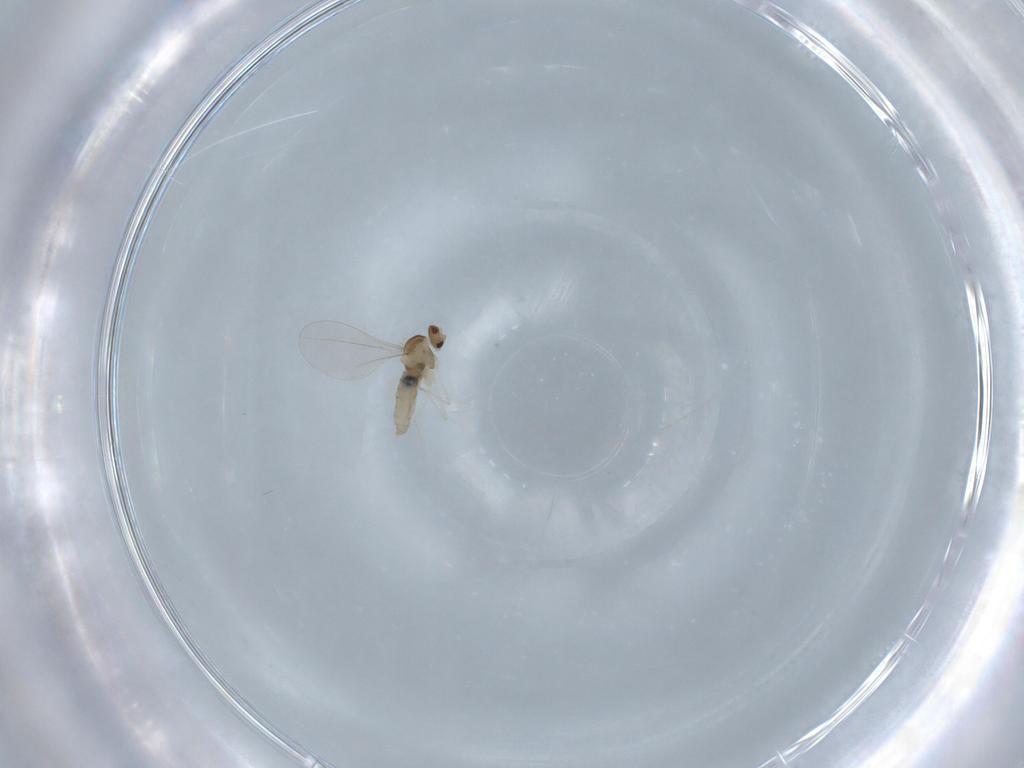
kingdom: Animalia
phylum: Arthropoda
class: Insecta
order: Diptera
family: Cecidomyiidae
